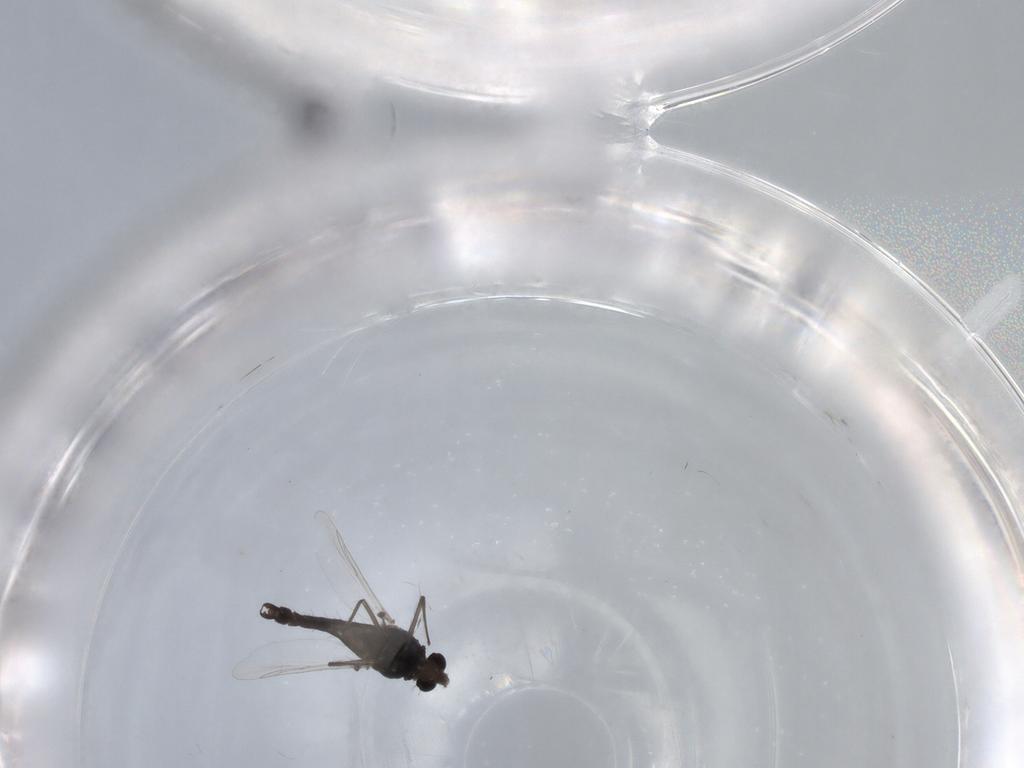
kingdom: Animalia
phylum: Arthropoda
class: Insecta
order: Diptera
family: Chironomidae
